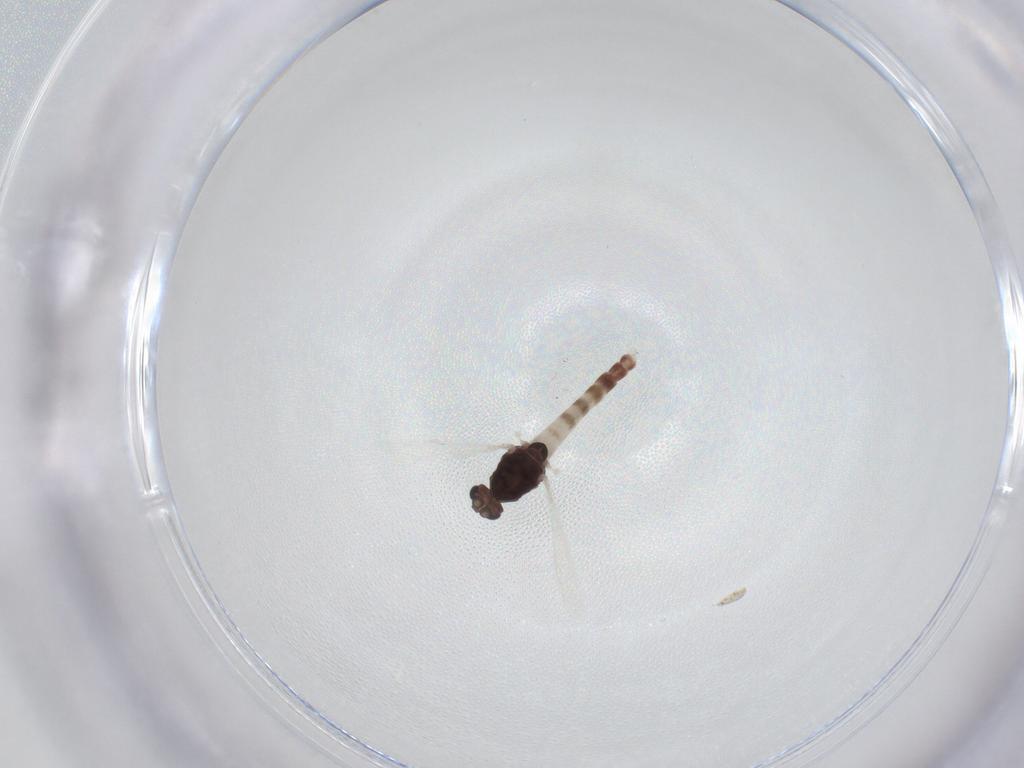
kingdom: Animalia
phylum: Arthropoda
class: Insecta
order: Diptera
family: Chironomidae
